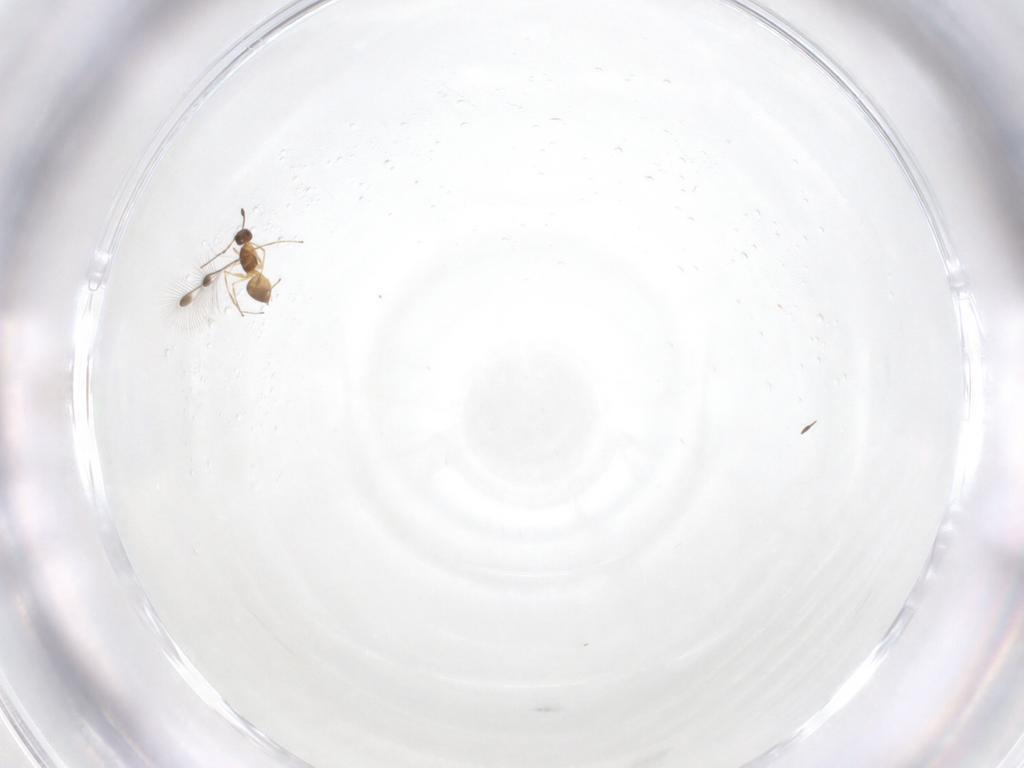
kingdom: Animalia
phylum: Arthropoda
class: Insecta
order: Hymenoptera
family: Mymaridae
